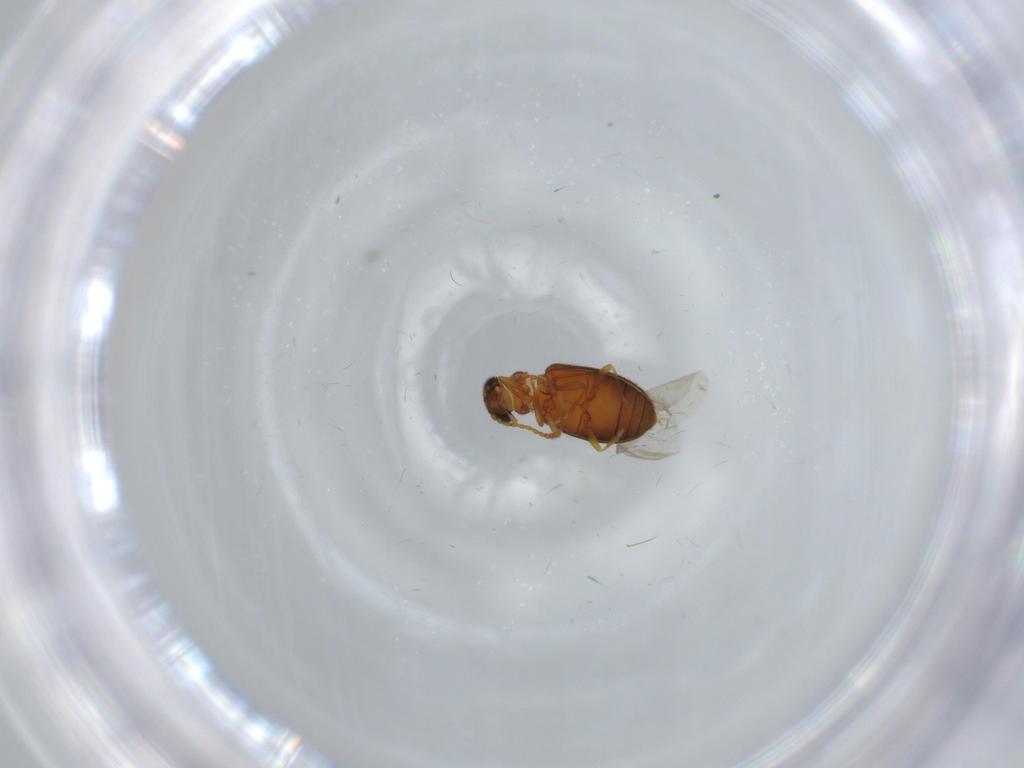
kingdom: Animalia
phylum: Arthropoda
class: Insecta
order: Coleoptera
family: Aderidae
